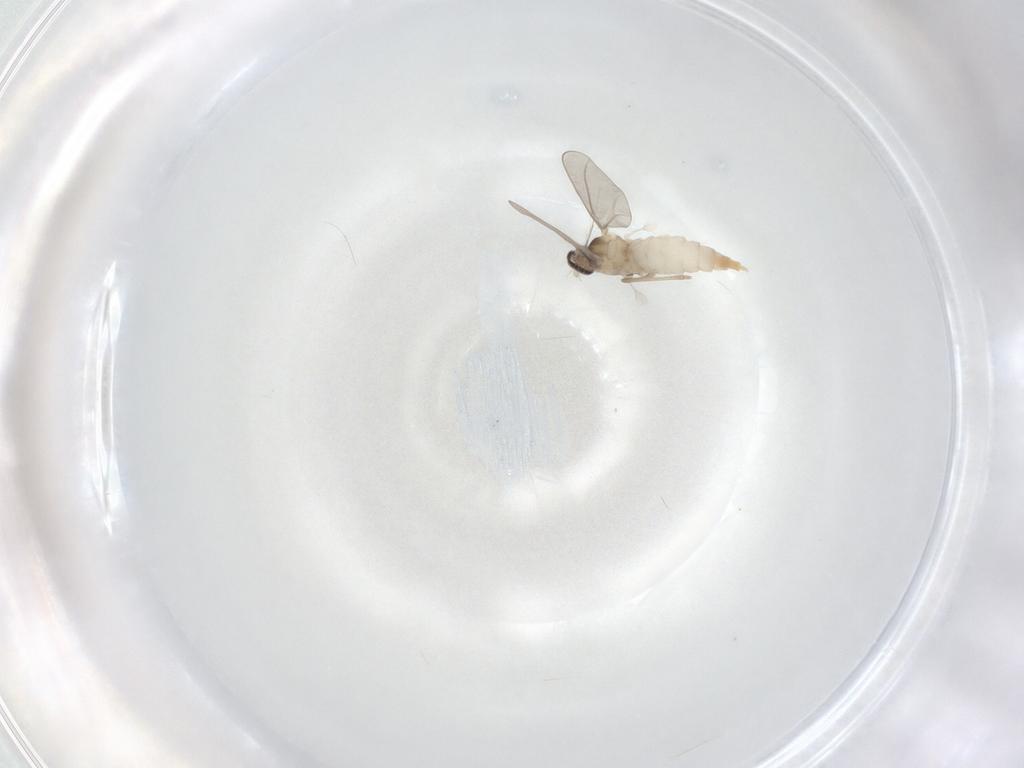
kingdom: Animalia
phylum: Arthropoda
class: Insecta
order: Diptera
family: Cecidomyiidae
